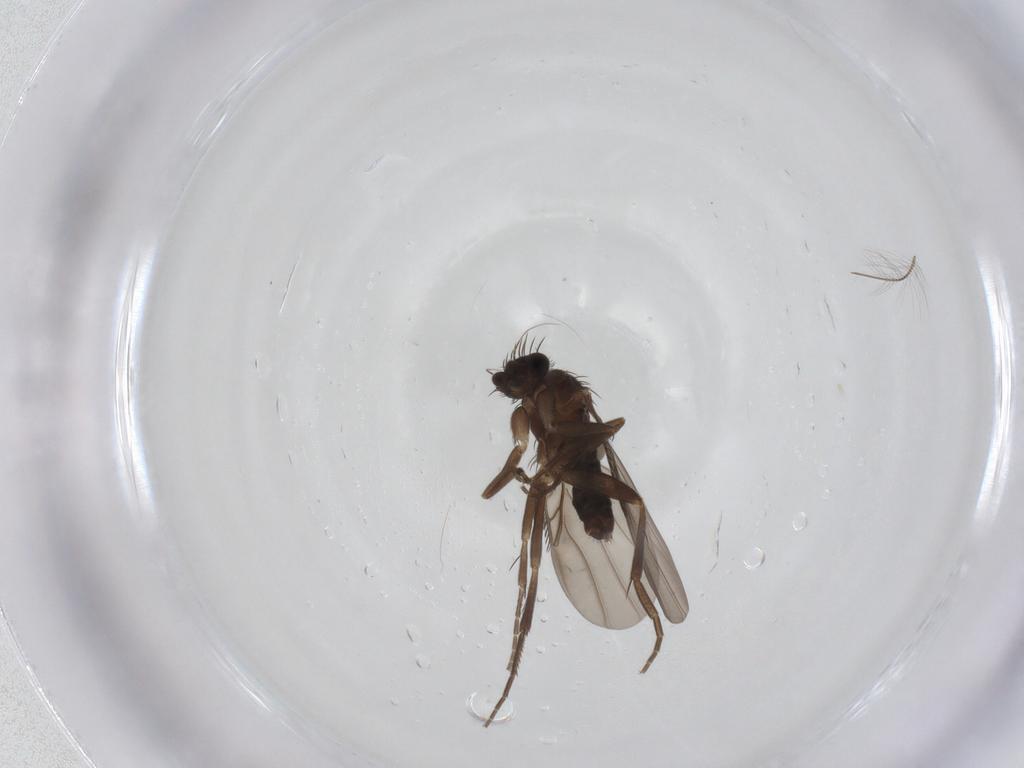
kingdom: Animalia
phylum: Arthropoda
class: Insecta
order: Diptera
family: Phoridae
